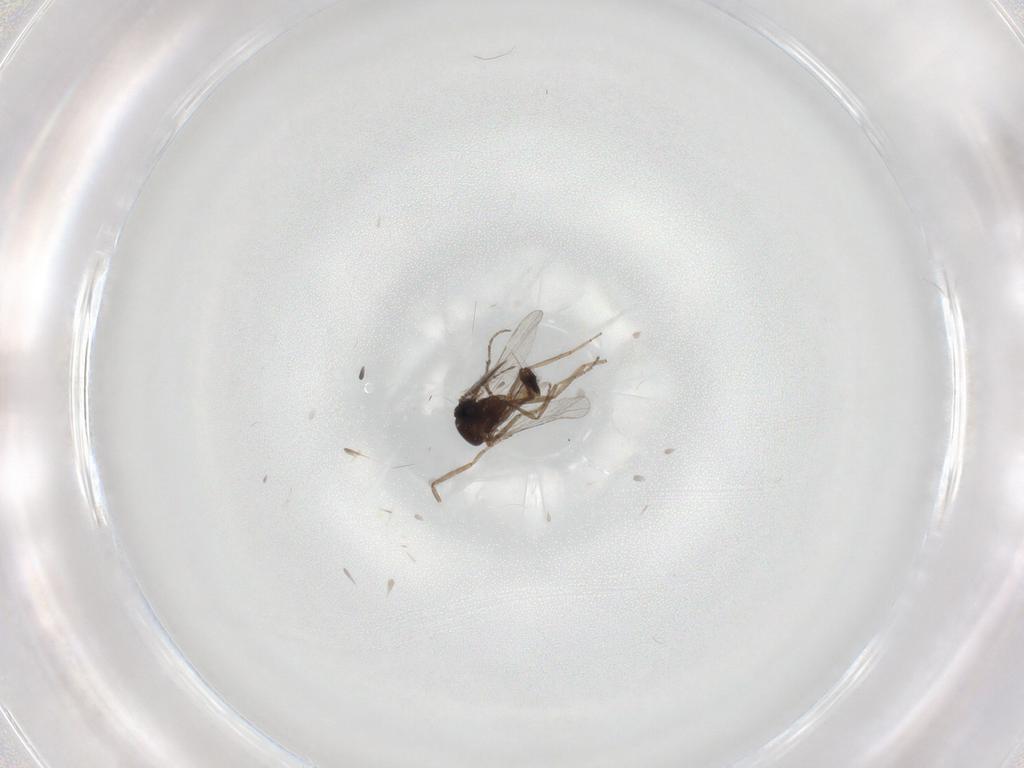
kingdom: Animalia
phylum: Arthropoda
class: Insecta
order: Diptera
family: Ceratopogonidae
